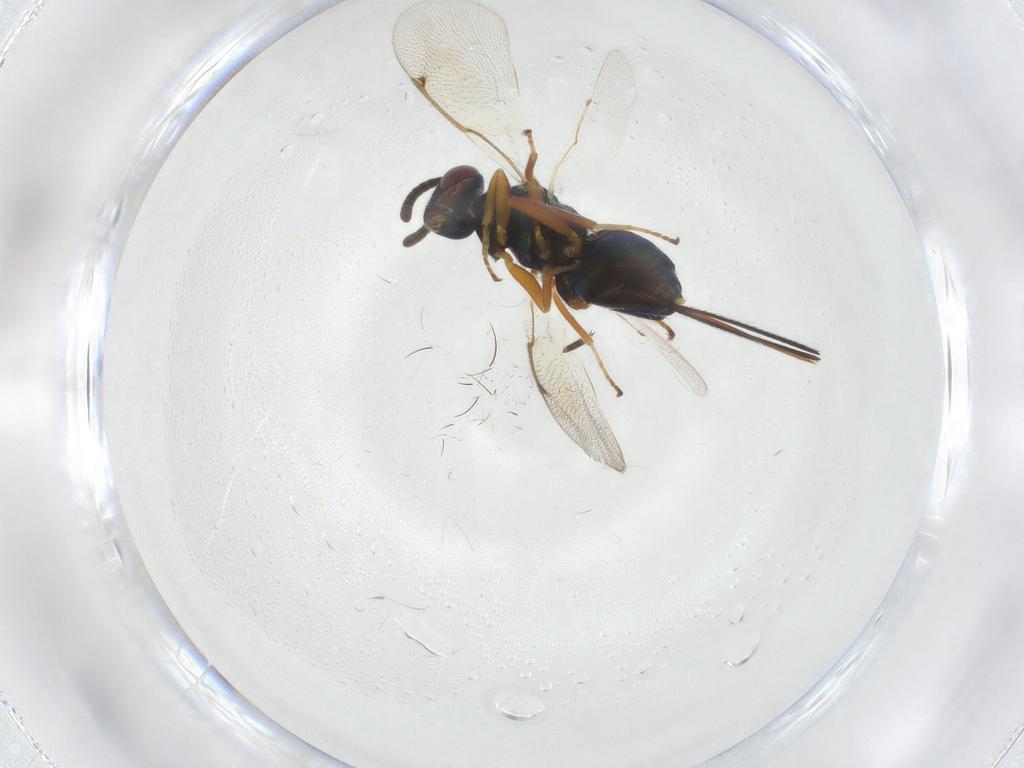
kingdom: Animalia
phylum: Arthropoda
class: Insecta
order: Hymenoptera
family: Torymidae
